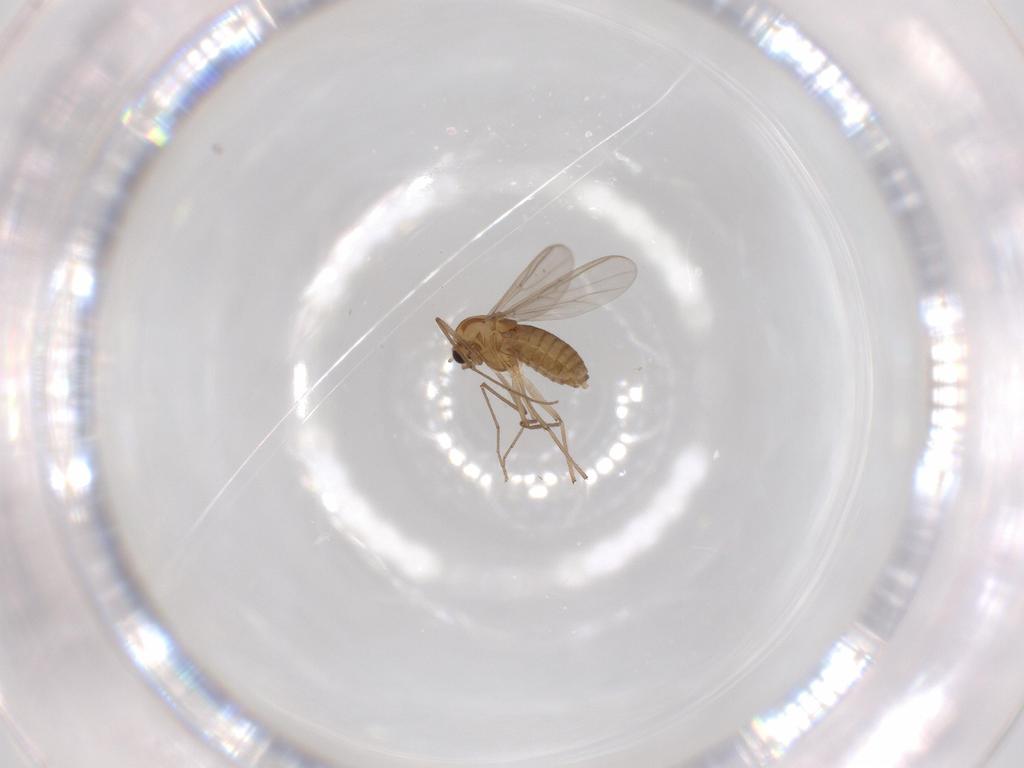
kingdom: Animalia
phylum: Arthropoda
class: Insecta
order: Diptera
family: Chironomidae
